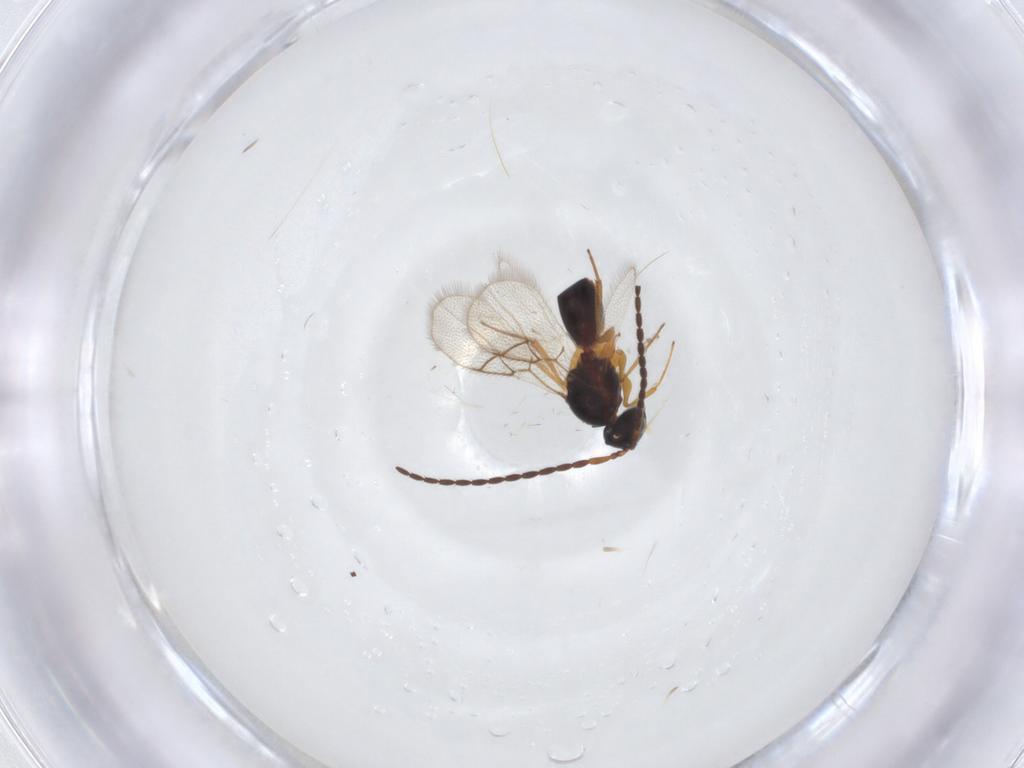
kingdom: Animalia
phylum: Arthropoda
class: Insecta
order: Hymenoptera
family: Figitidae
